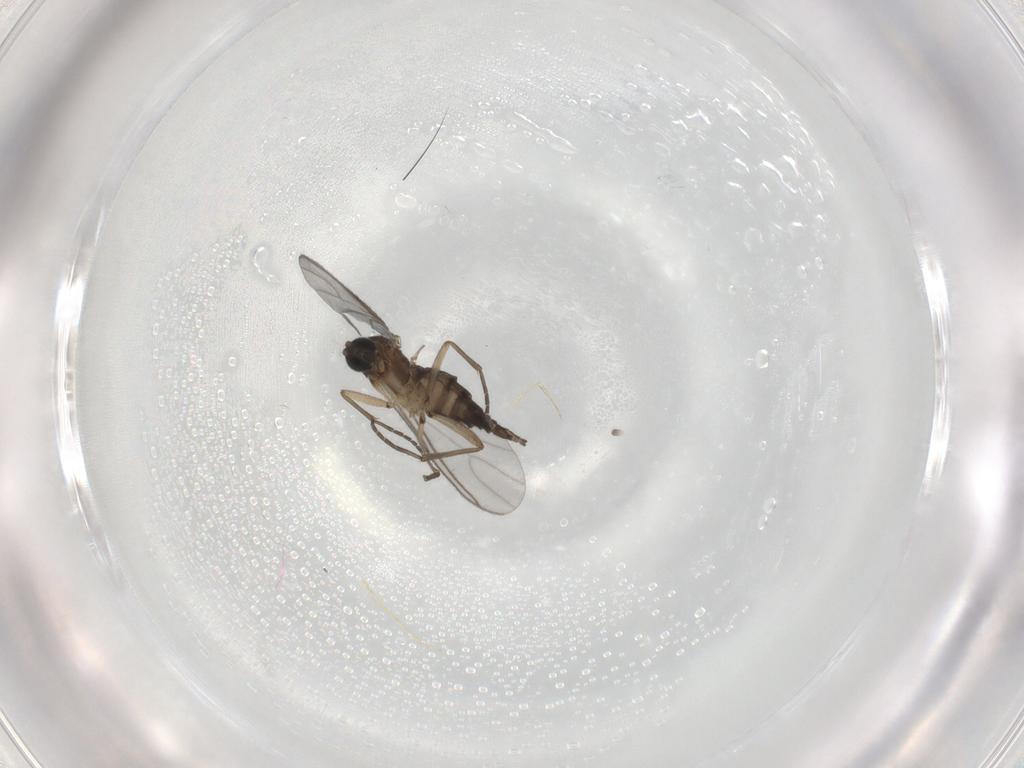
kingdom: Animalia
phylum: Arthropoda
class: Insecta
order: Diptera
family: Sciaridae
